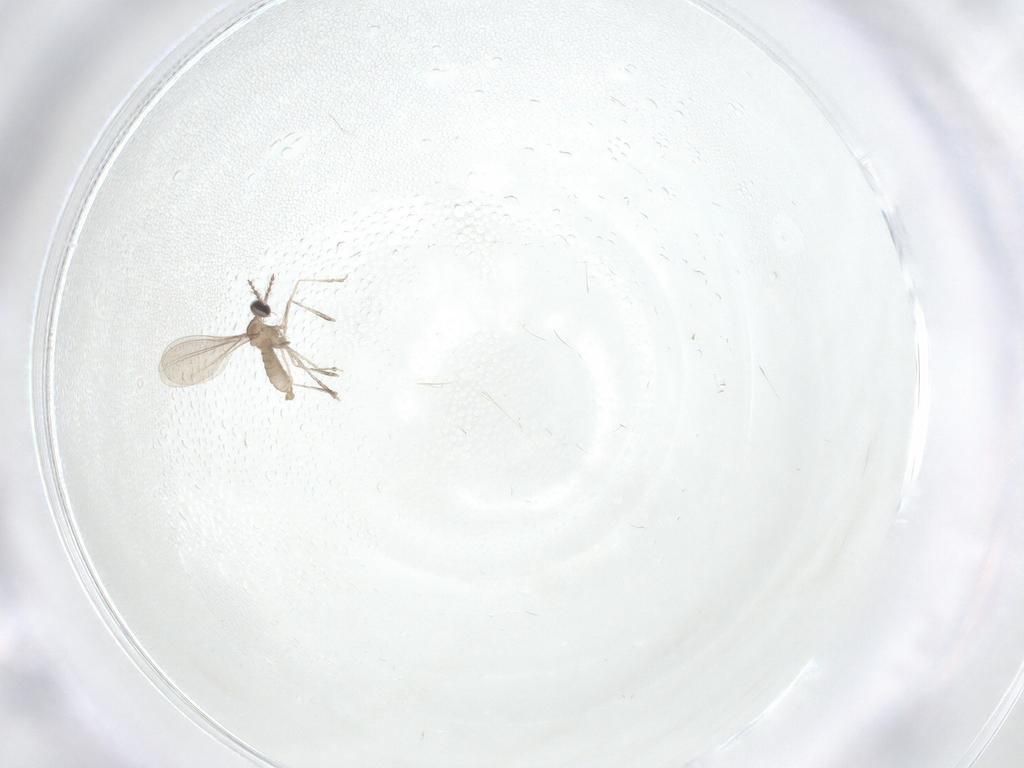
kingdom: Animalia
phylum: Arthropoda
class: Insecta
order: Diptera
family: Cecidomyiidae
